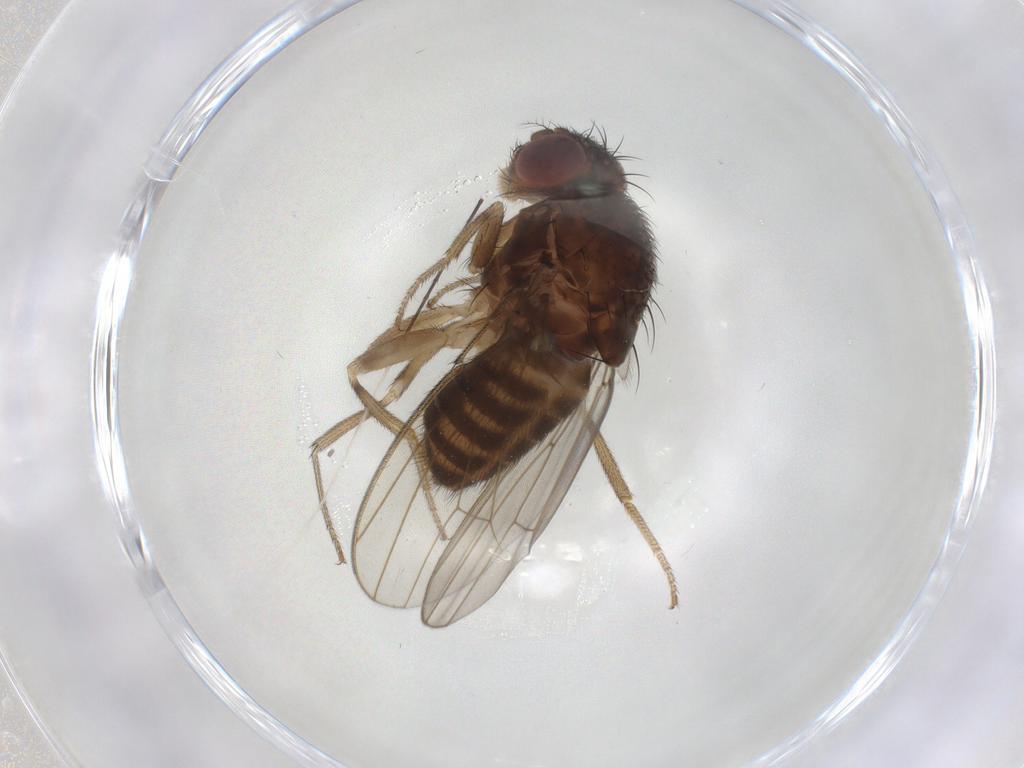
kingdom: Animalia
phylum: Arthropoda
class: Insecta
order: Diptera
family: Drosophilidae
